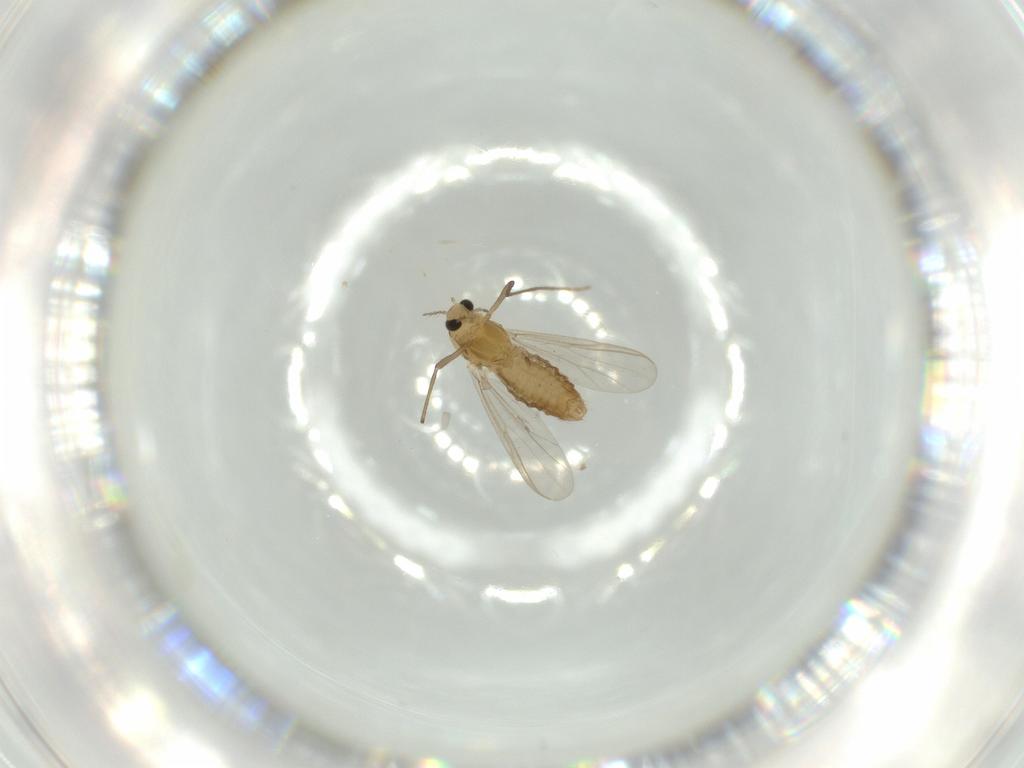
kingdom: Animalia
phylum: Arthropoda
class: Insecta
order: Diptera
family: Chironomidae
